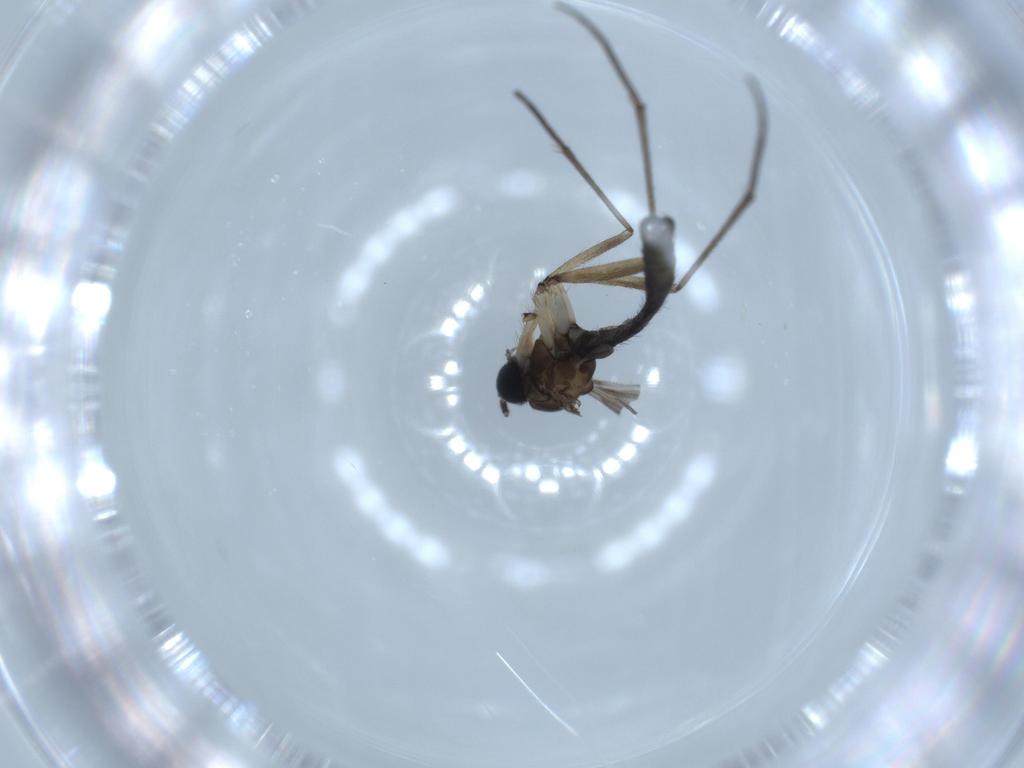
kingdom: Animalia
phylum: Arthropoda
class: Insecta
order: Diptera
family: Sciaridae
